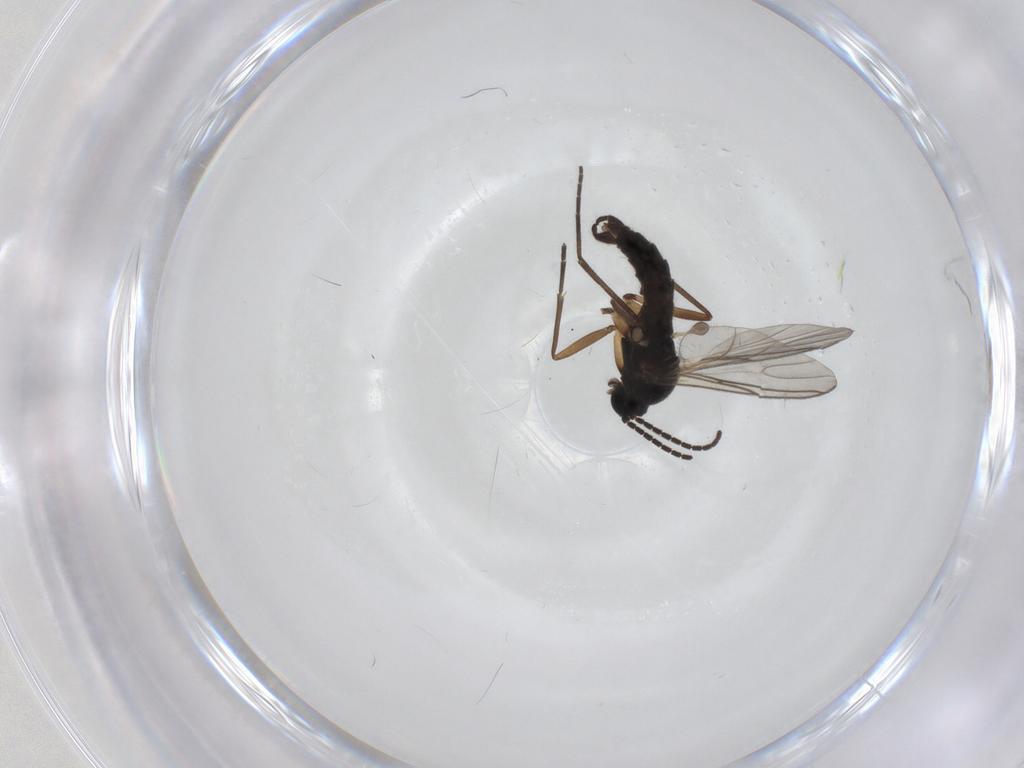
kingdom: Animalia
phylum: Arthropoda
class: Insecta
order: Diptera
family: Sciaridae
